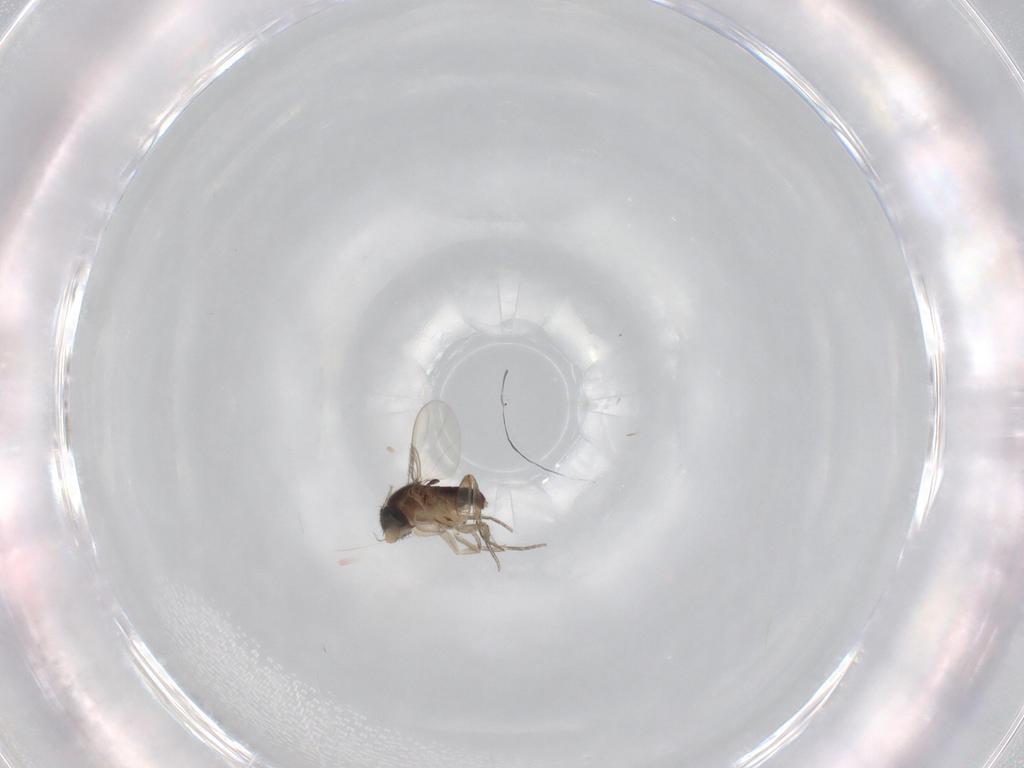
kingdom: Animalia
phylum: Arthropoda
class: Insecta
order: Diptera
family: Phoridae
